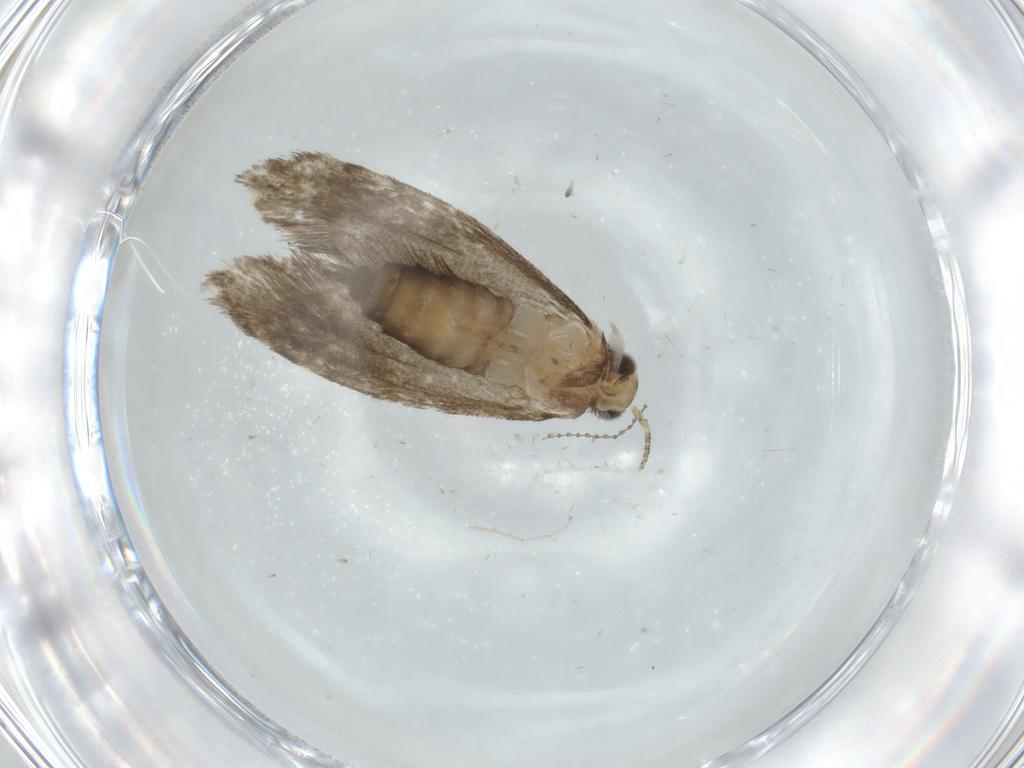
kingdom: Animalia
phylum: Arthropoda
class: Insecta
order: Lepidoptera
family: Tineidae
